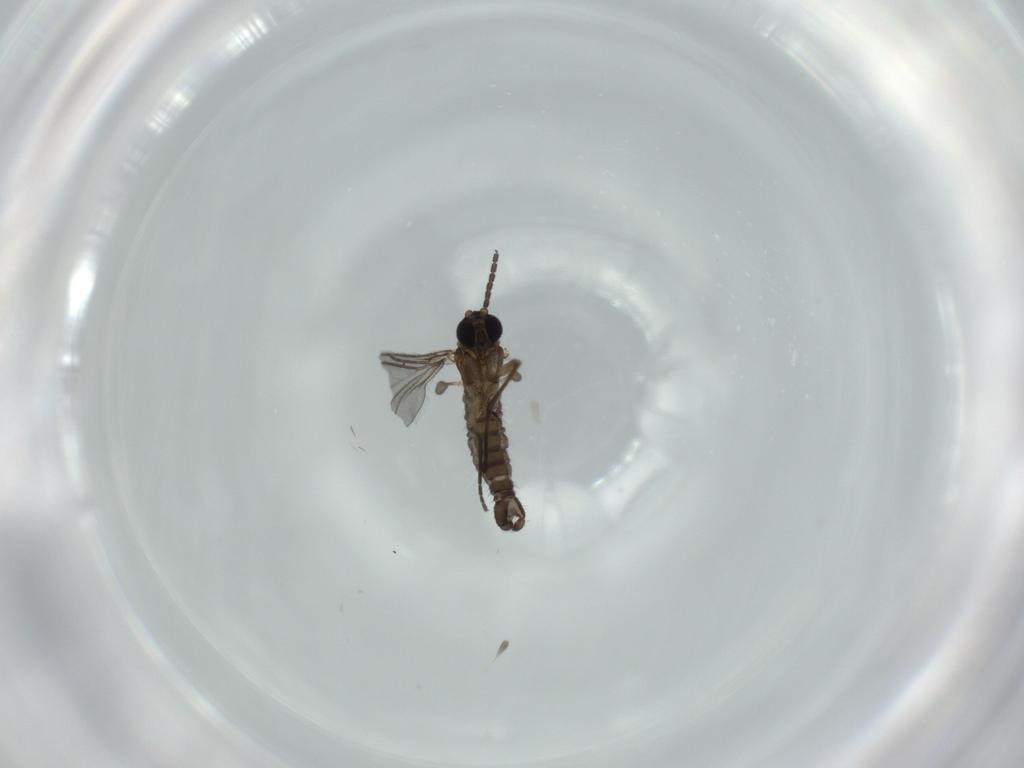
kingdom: Animalia
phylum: Arthropoda
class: Insecta
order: Diptera
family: Sciaridae
